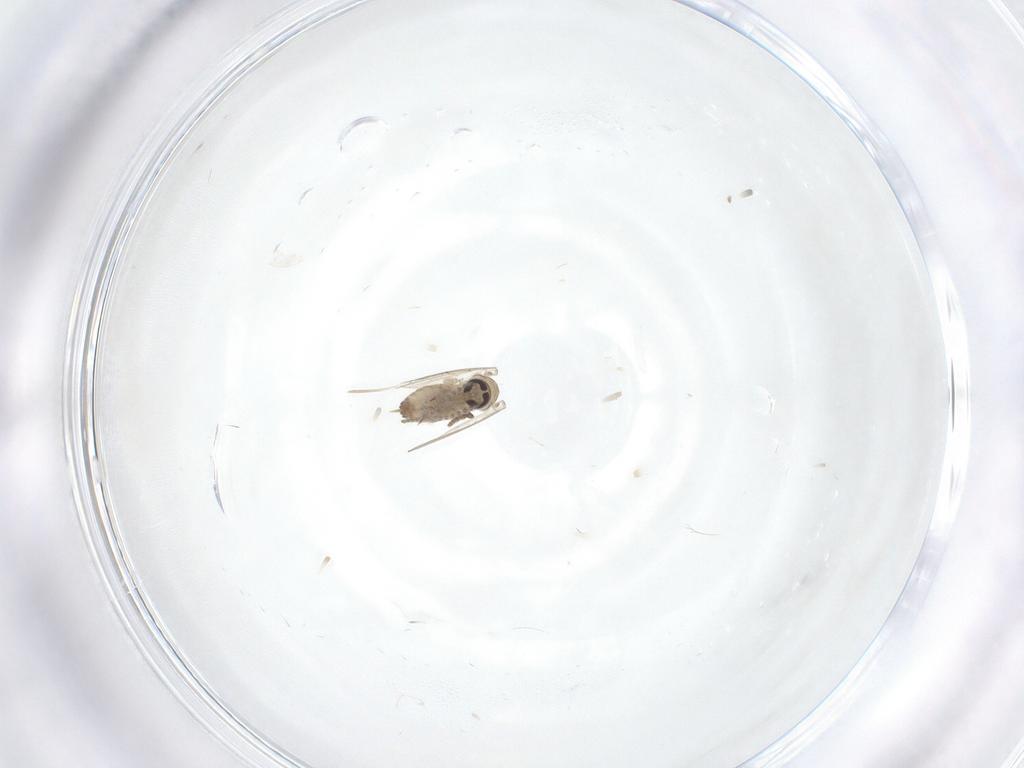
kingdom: Animalia
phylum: Arthropoda
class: Insecta
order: Diptera
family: Psychodidae
